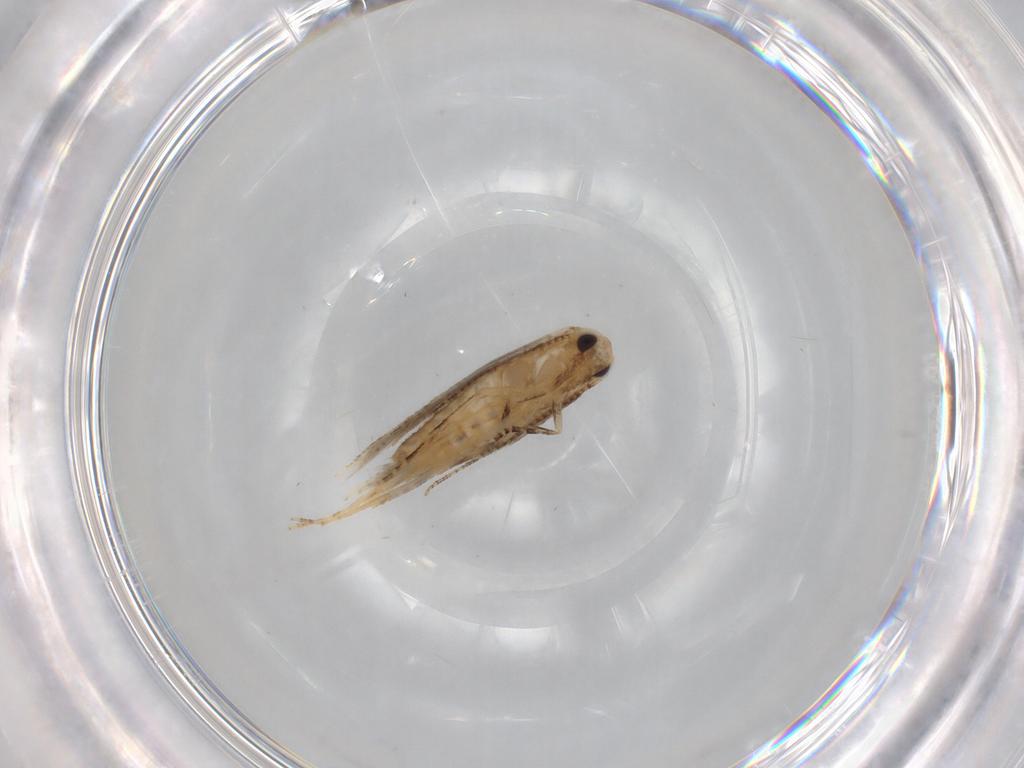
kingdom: Animalia
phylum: Arthropoda
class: Insecta
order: Lepidoptera
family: Bucculatricidae
